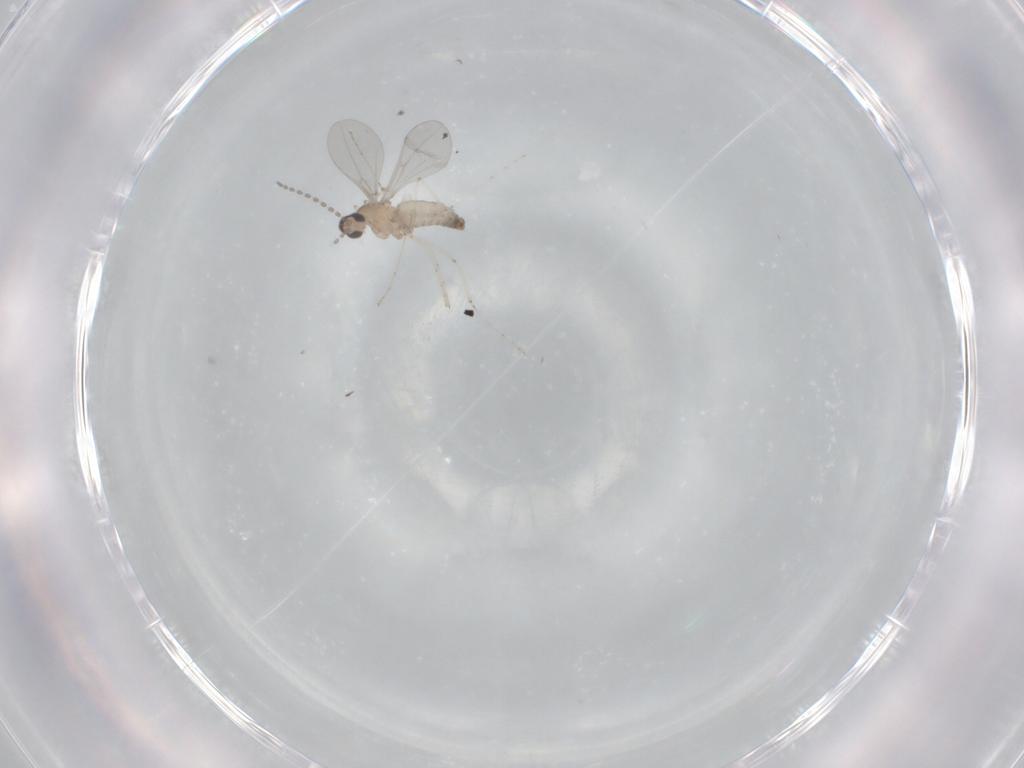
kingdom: Animalia
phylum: Arthropoda
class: Insecta
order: Diptera
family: Cecidomyiidae
